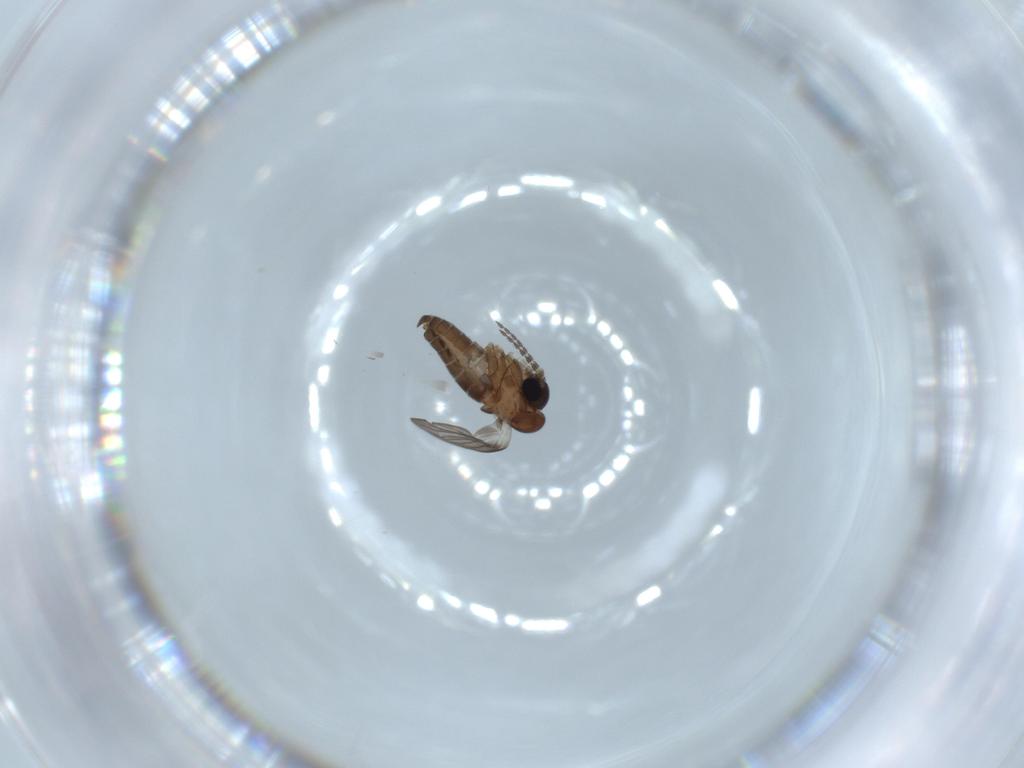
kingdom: Animalia
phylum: Arthropoda
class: Insecta
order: Diptera
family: Psychodidae
